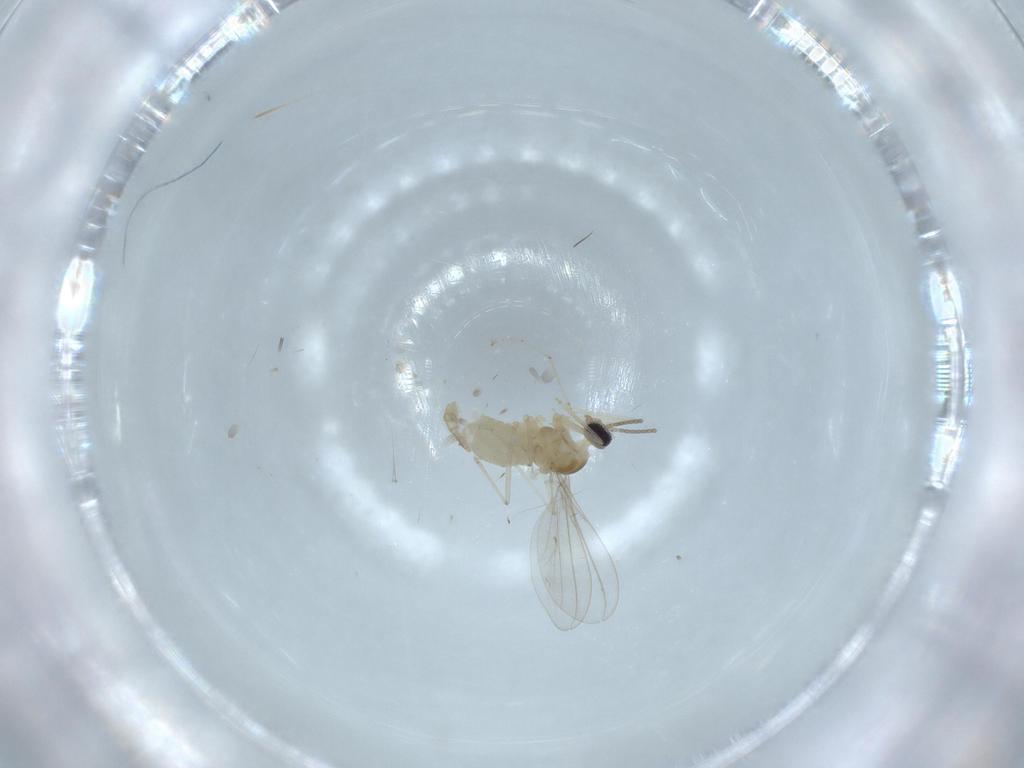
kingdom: Animalia
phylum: Arthropoda
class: Insecta
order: Diptera
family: Cecidomyiidae
